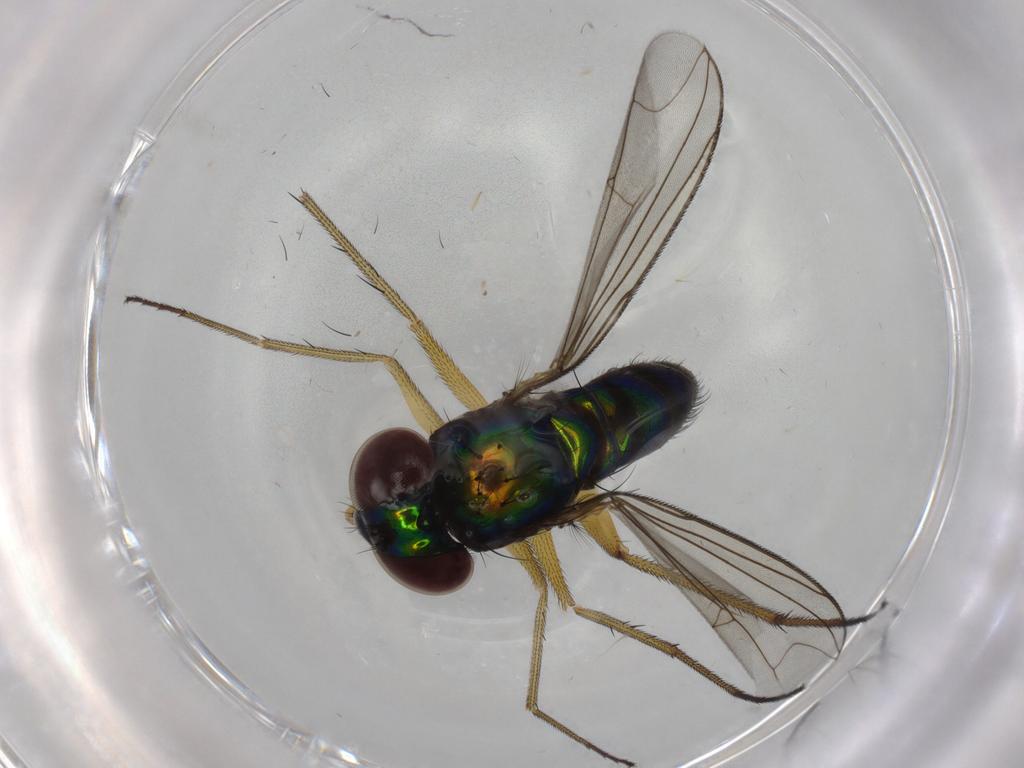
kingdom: Animalia
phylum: Arthropoda
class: Insecta
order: Diptera
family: Dolichopodidae
